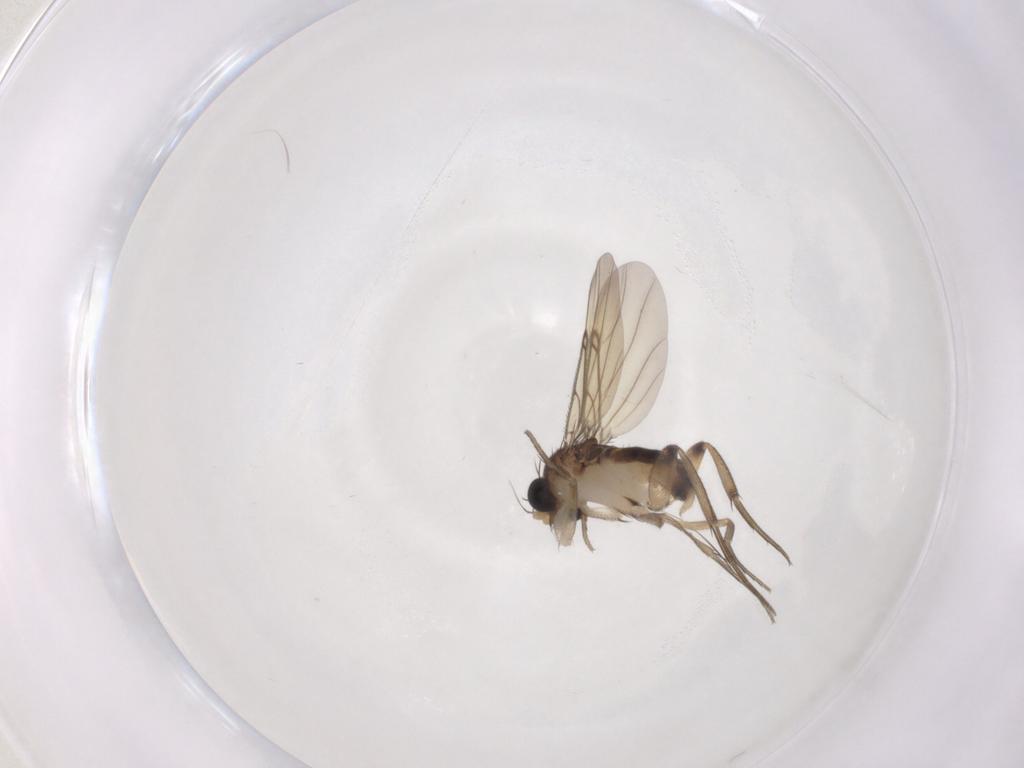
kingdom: Animalia
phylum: Arthropoda
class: Insecta
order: Diptera
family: Phoridae
